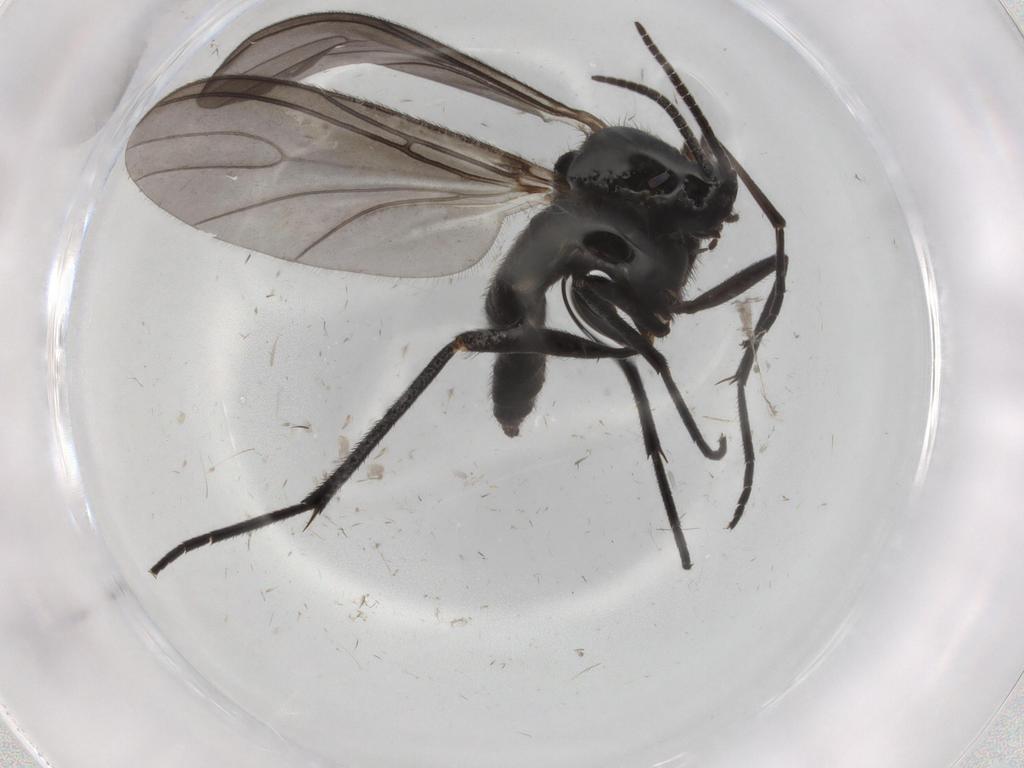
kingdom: Animalia
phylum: Arthropoda
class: Insecta
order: Diptera
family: Sciaridae
